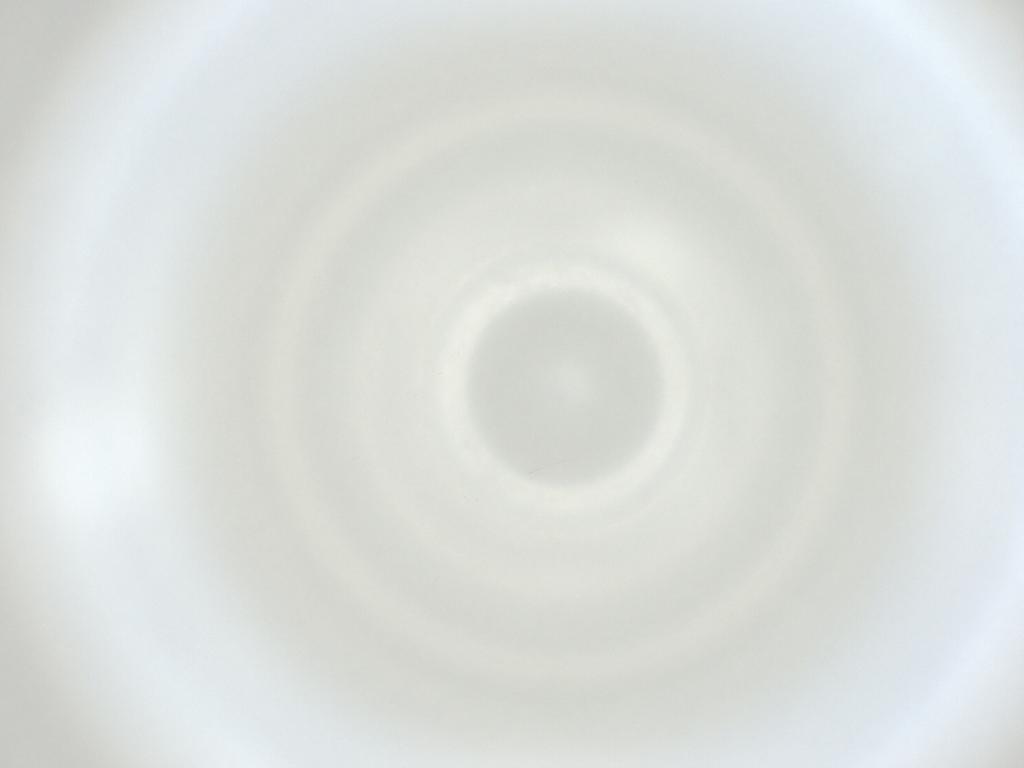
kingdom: Animalia
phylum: Arthropoda
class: Insecta
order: Diptera
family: Cecidomyiidae
